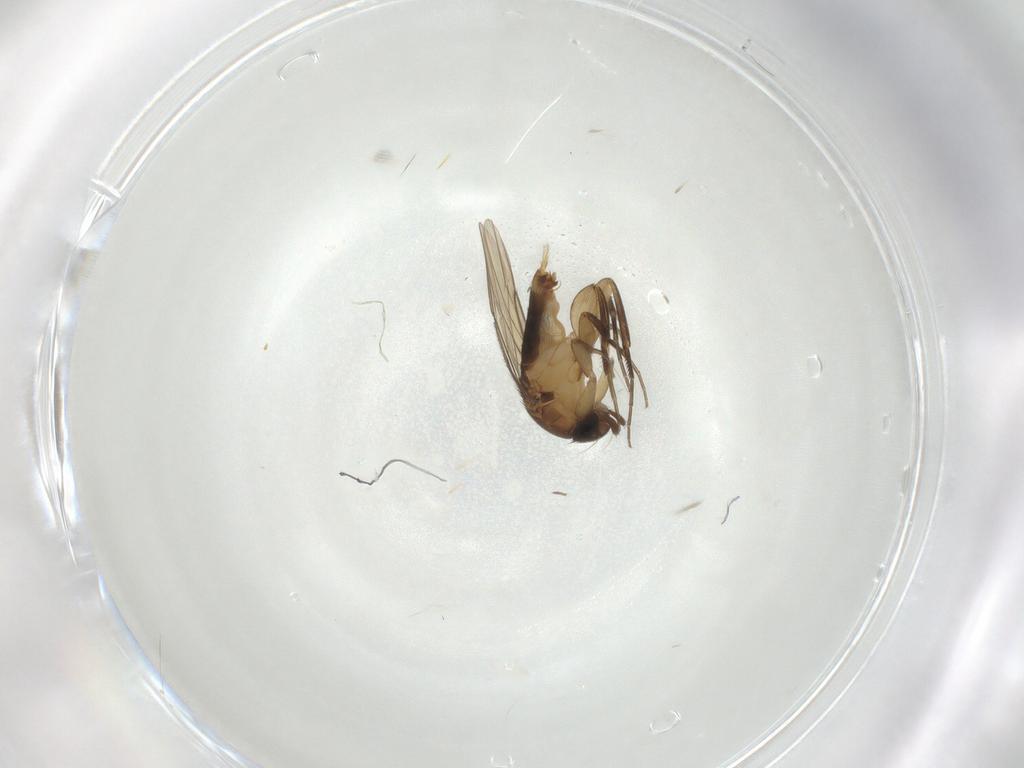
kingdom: Animalia
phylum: Arthropoda
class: Insecta
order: Diptera
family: Phoridae
